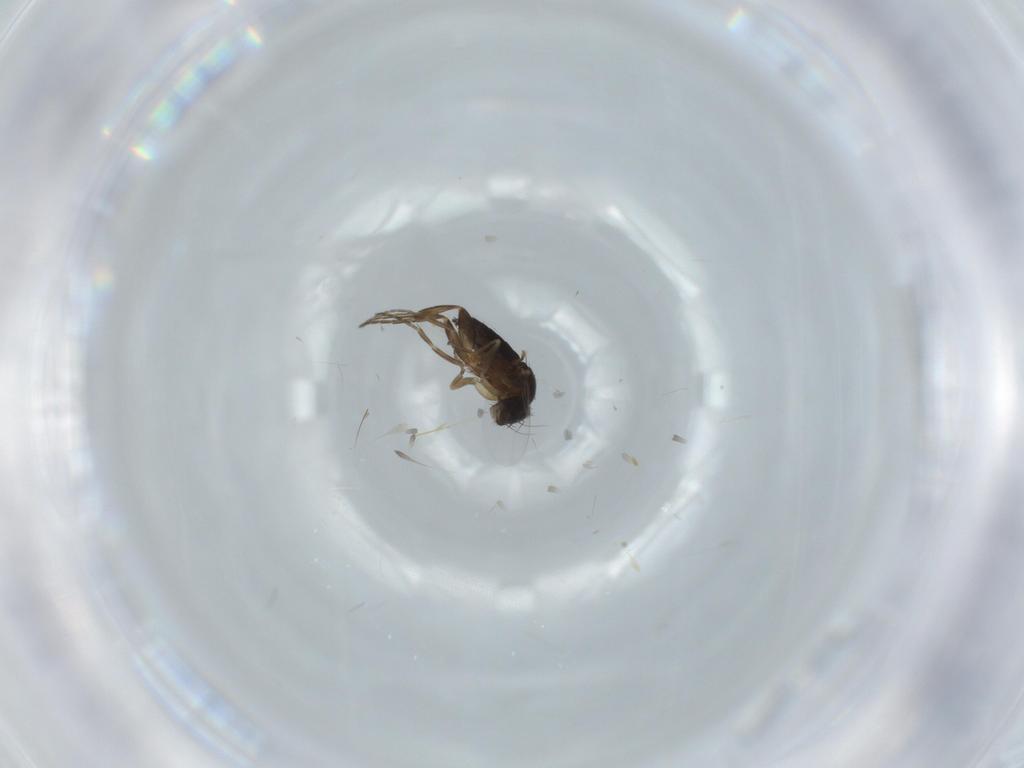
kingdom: Animalia
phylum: Arthropoda
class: Insecta
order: Diptera
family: Phoridae
